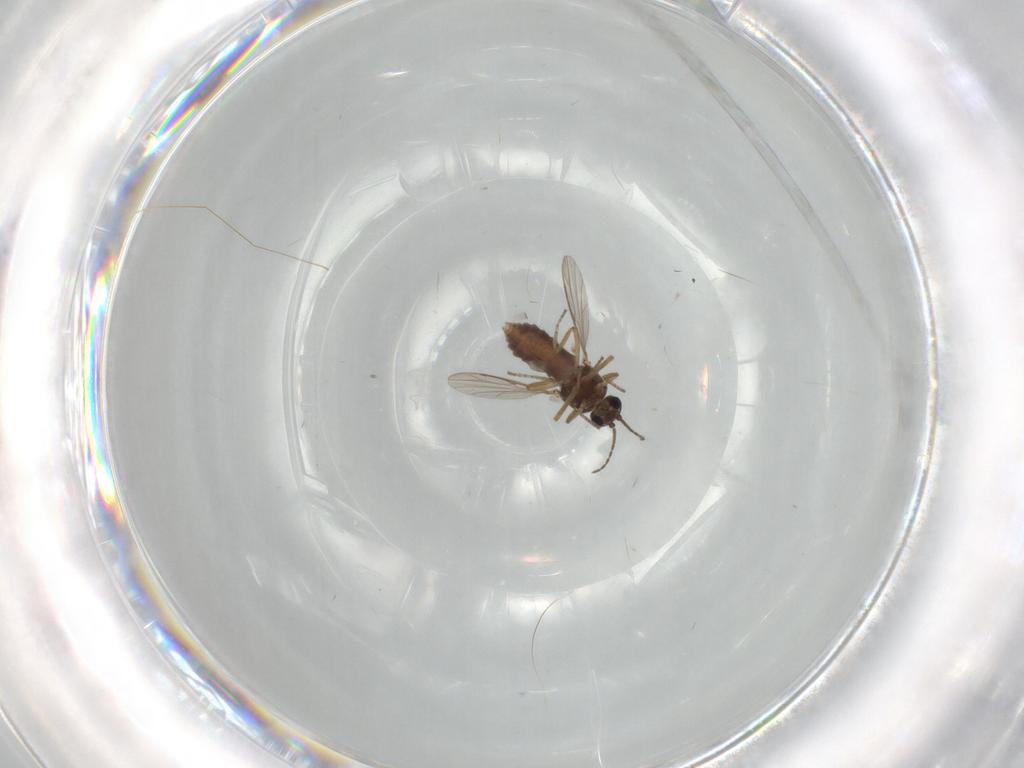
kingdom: Animalia
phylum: Arthropoda
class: Insecta
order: Diptera
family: Ceratopogonidae
